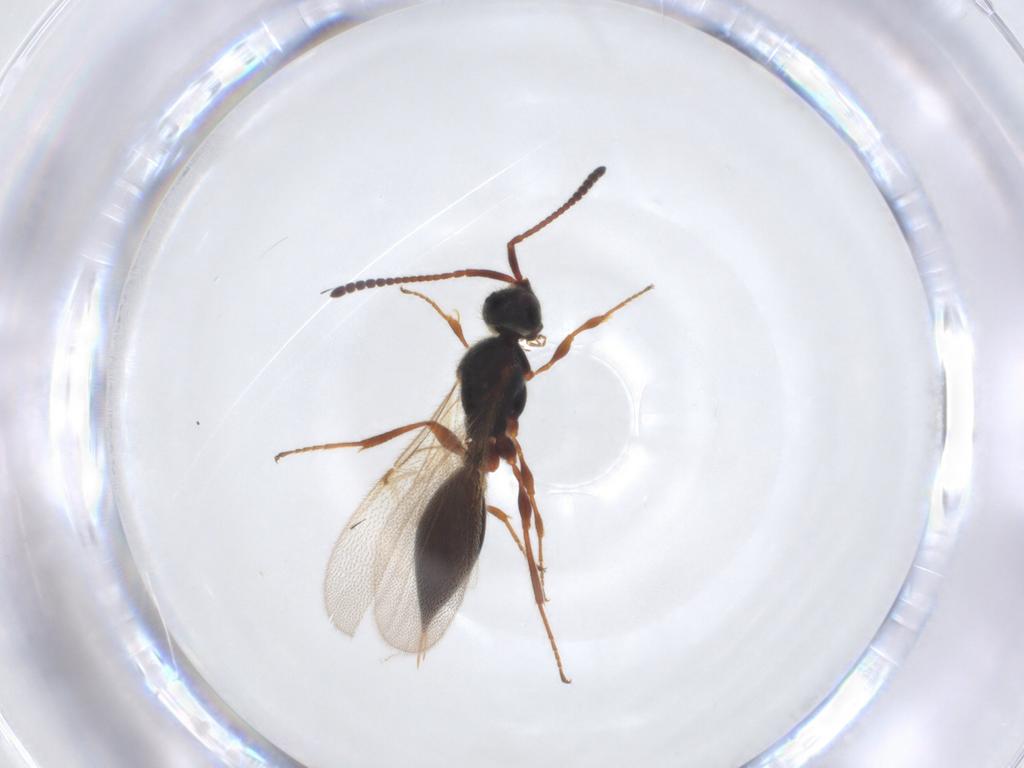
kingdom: Animalia
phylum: Arthropoda
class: Insecta
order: Hymenoptera
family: Diapriidae
